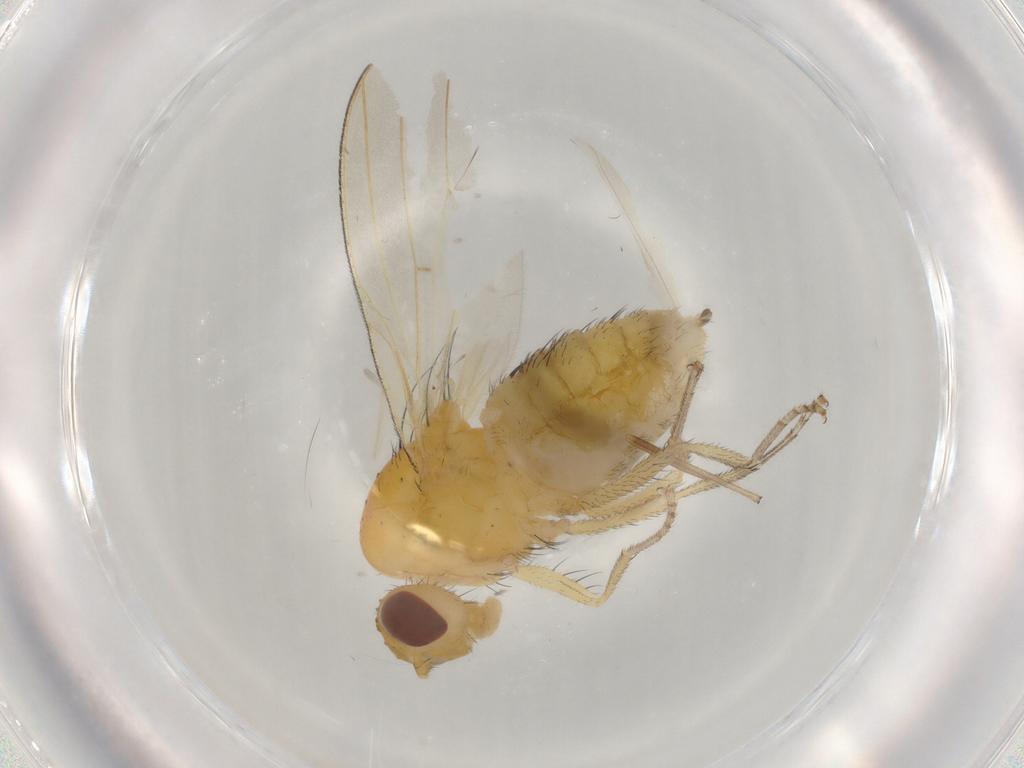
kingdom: Animalia
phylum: Arthropoda
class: Insecta
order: Diptera
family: Lauxaniidae
